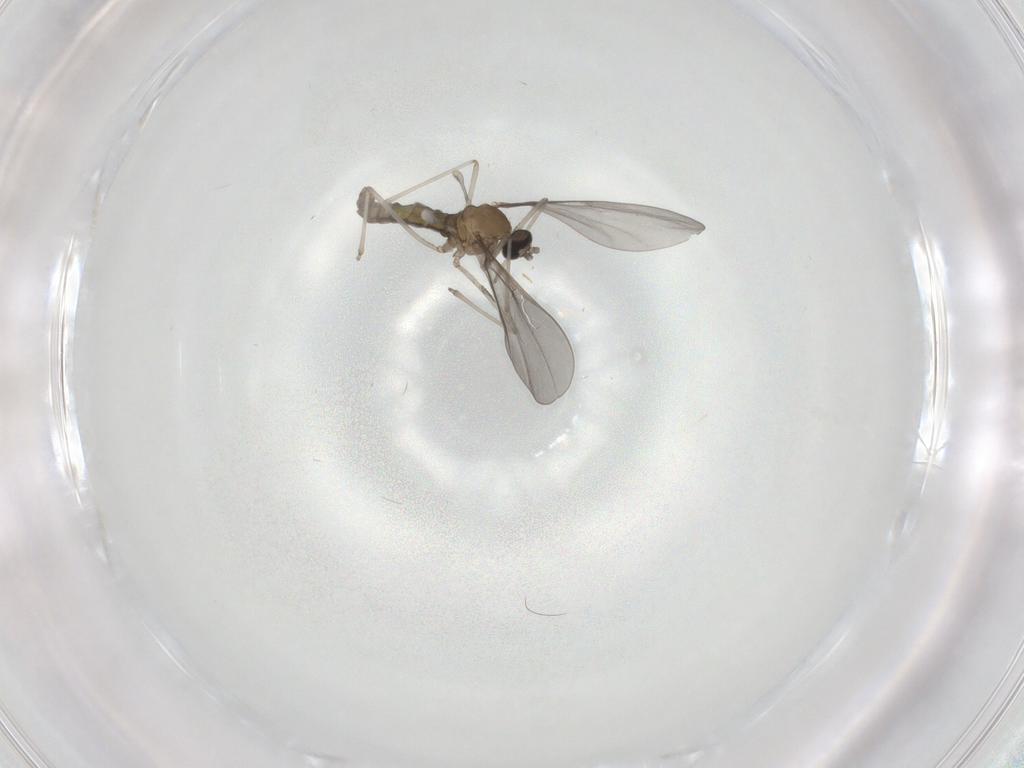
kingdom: Animalia
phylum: Arthropoda
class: Insecta
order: Diptera
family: Cecidomyiidae
